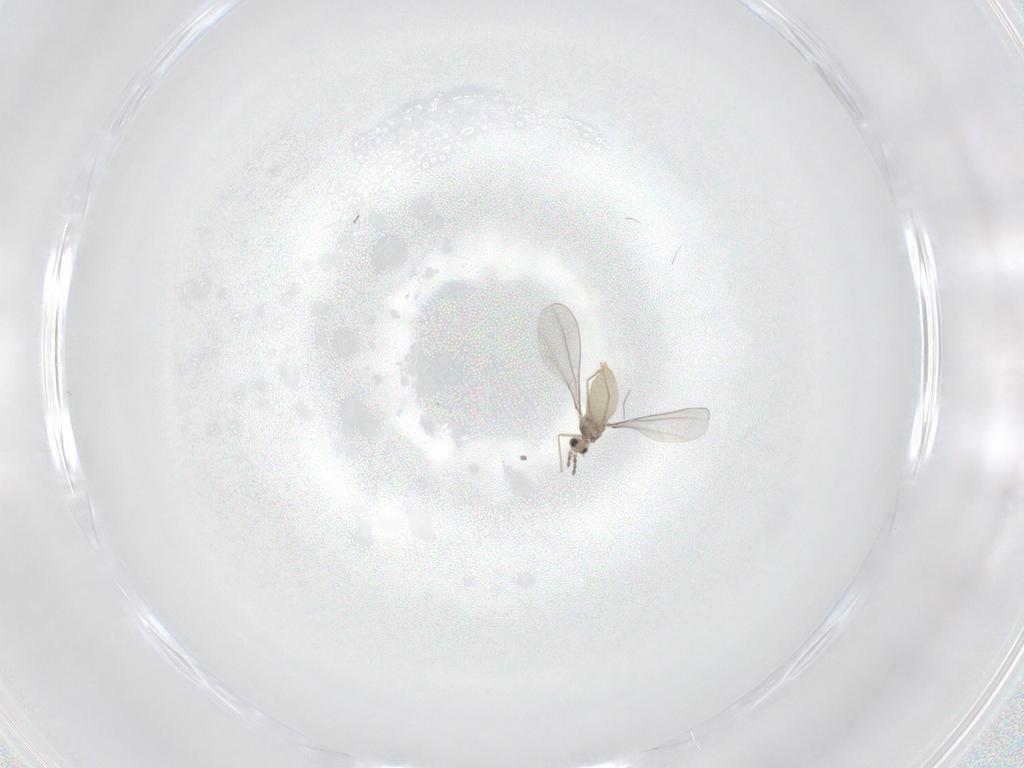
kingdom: Animalia
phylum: Arthropoda
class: Insecta
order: Diptera
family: Cecidomyiidae
